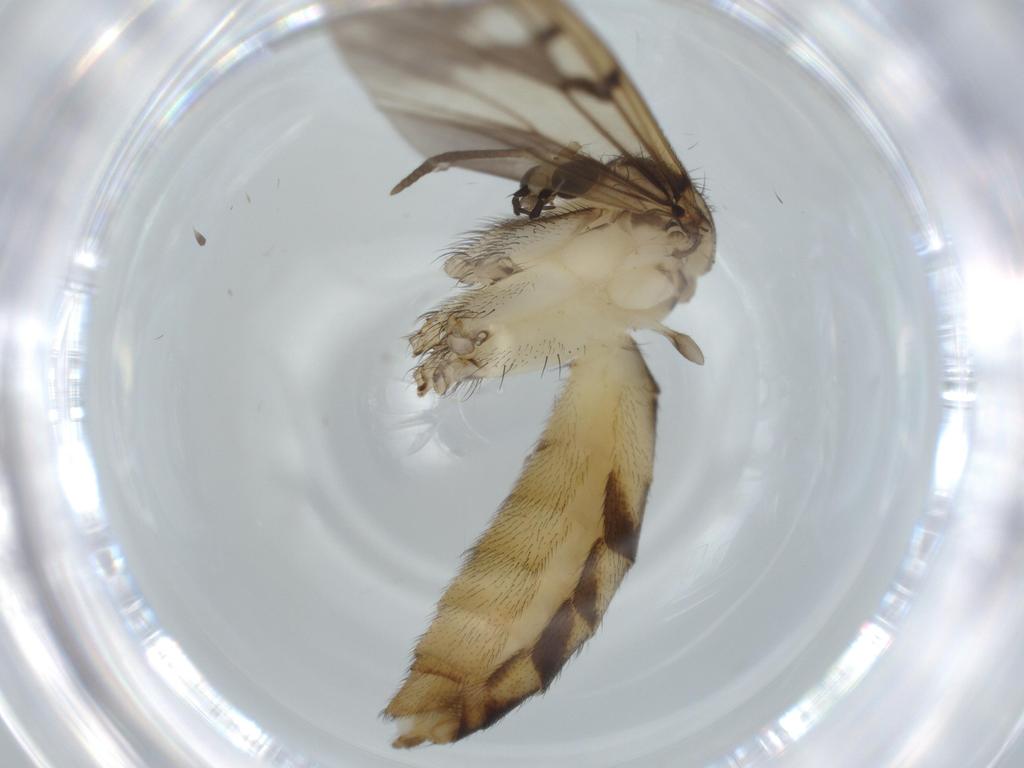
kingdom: Animalia
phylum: Arthropoda
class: Insecta
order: Diptera
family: Mycetophilidae
